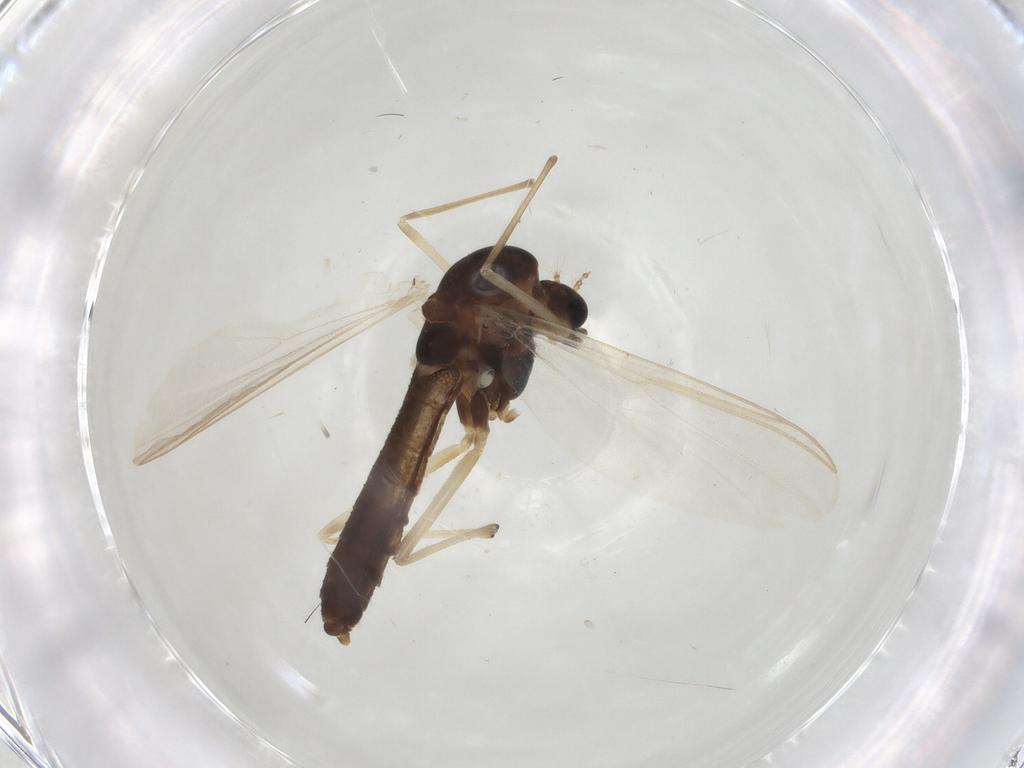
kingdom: Animalia
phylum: Arthropoda
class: Insecta
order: Diptera
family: Chironomidae
